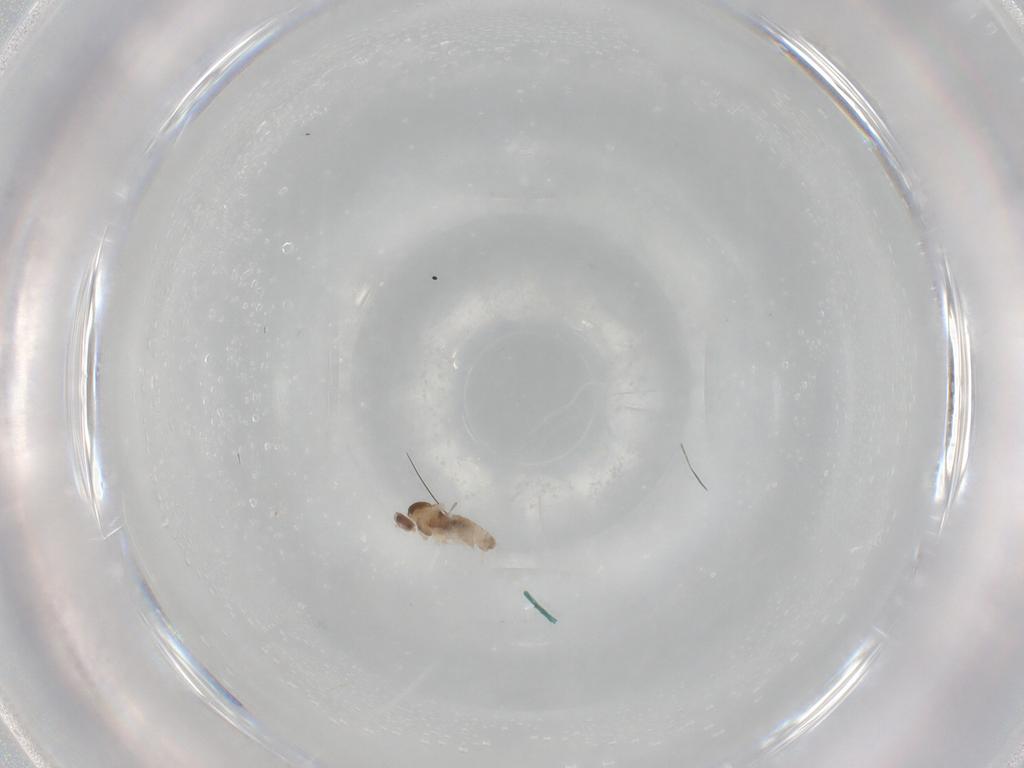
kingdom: Animalia
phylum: Arthropoda
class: Insecta
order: Diptera
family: Cecidomyiidae
